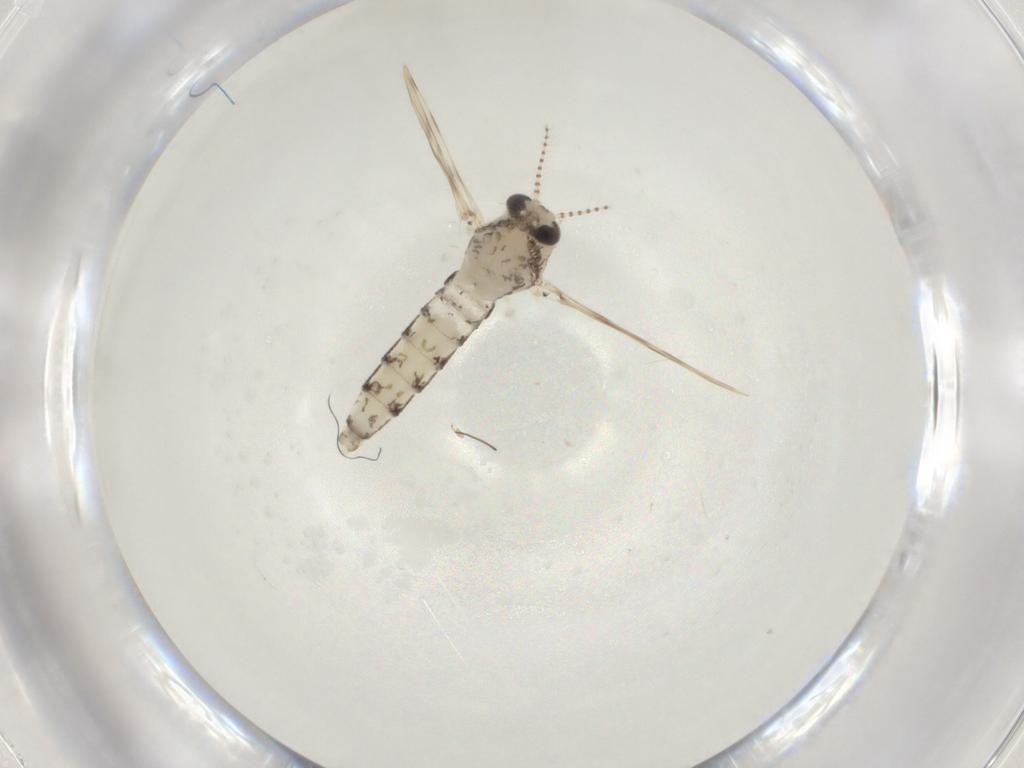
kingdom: Animalia
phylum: Arthropoda
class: Insecta
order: Diptera
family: Chaoboridae
